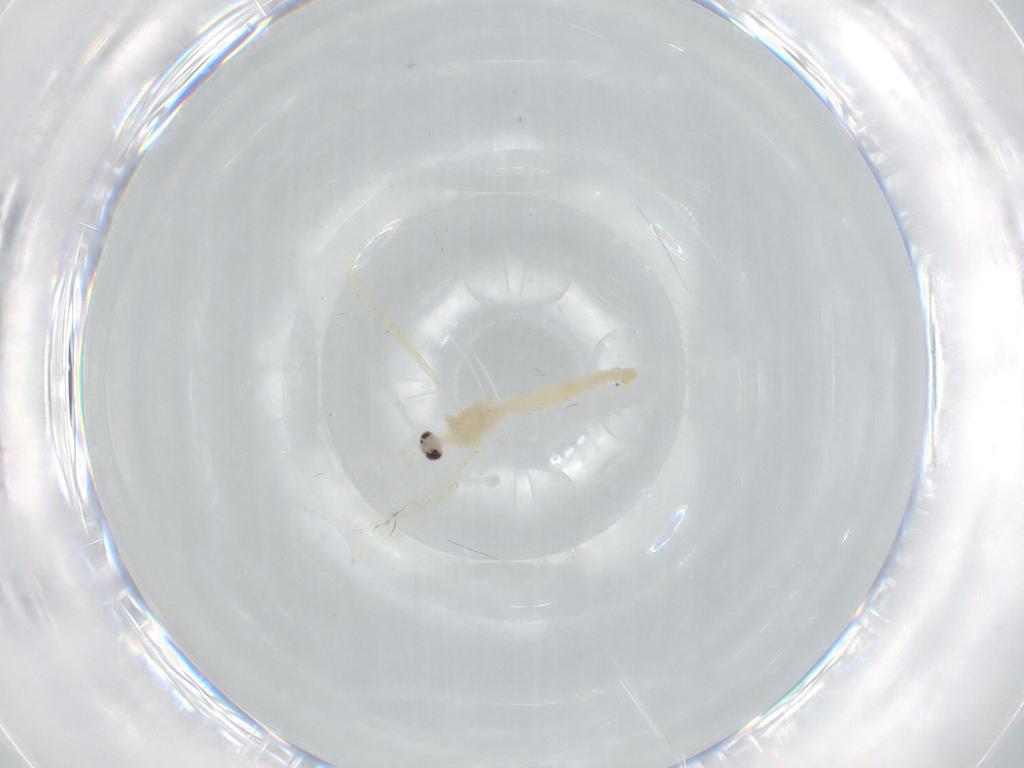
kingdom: Animalia
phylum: Arthropoda
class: Insecta
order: Diptera
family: Cecidomyiidae
